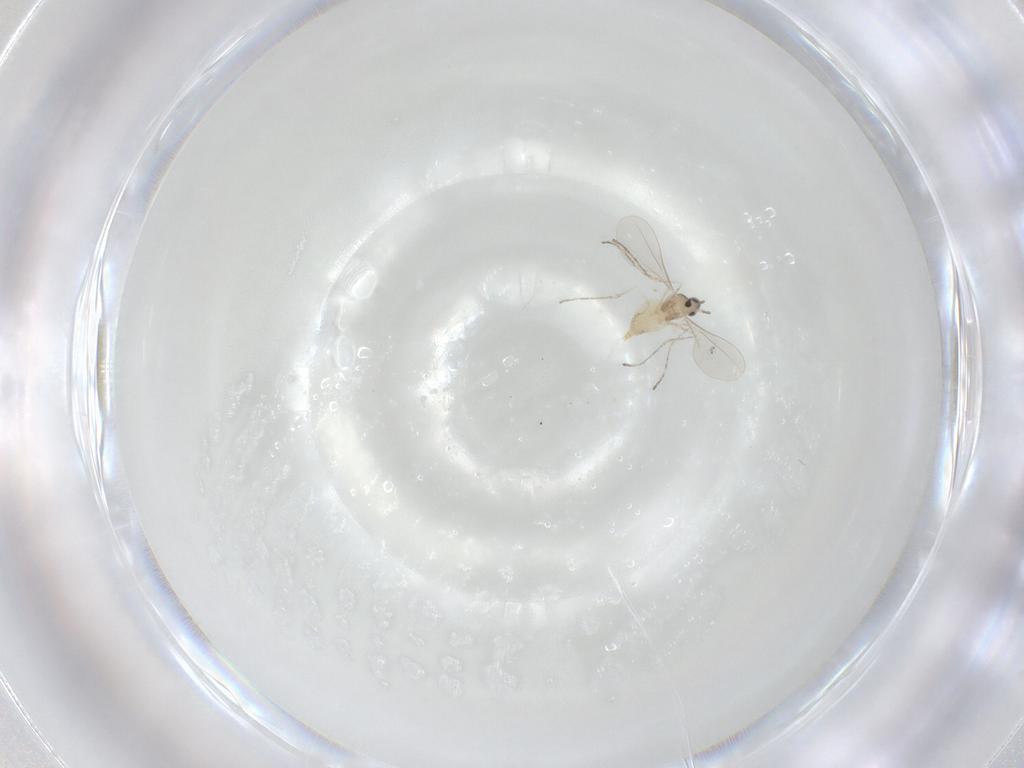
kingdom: Animalia
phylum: Arthropoda
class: Insecta
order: Diptera
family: Cecidomyiidae
